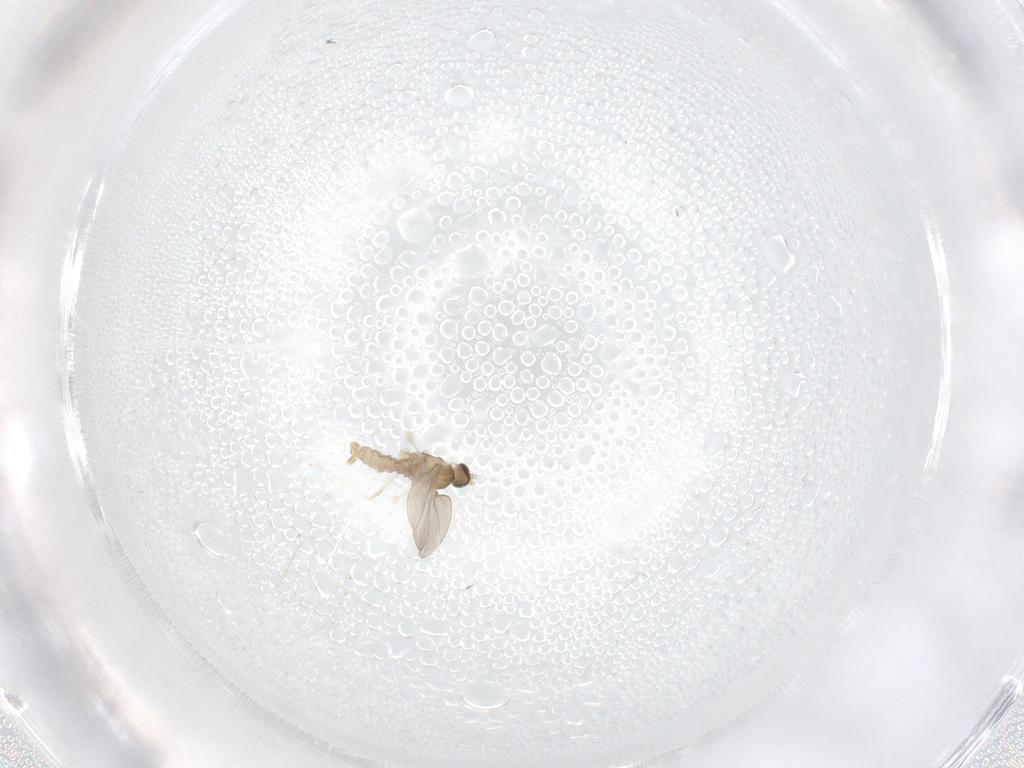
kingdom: Animalia
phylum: Arthropoda
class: Insecta
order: Diptera
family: Cecidomyiidae
